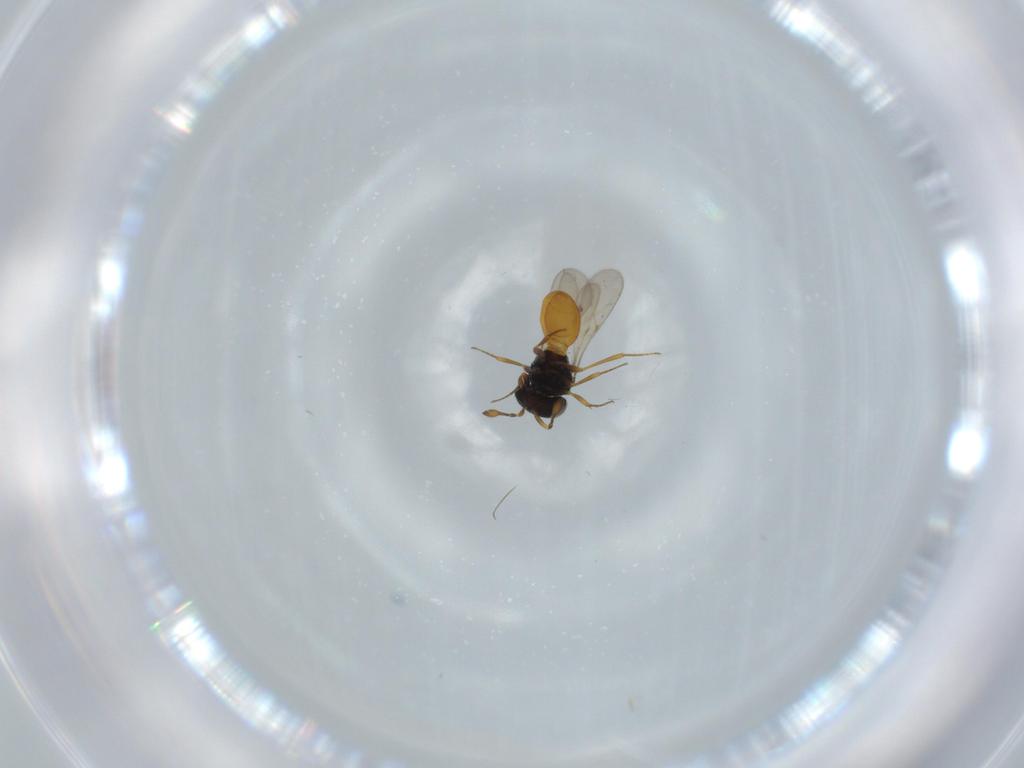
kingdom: Animalia
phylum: Arthropoda
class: Insecta
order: Hymenoptera
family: Scelionidae
